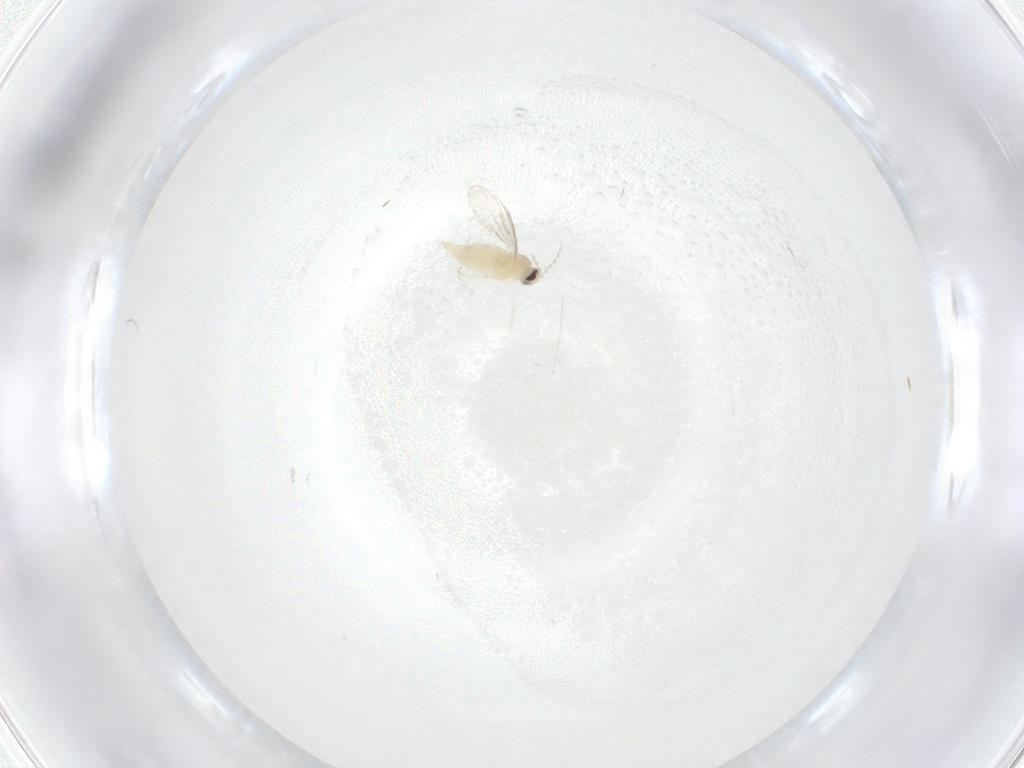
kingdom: Animalia
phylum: Arthropoda
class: Insecta
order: Diptera
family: Cecidomyiidae
